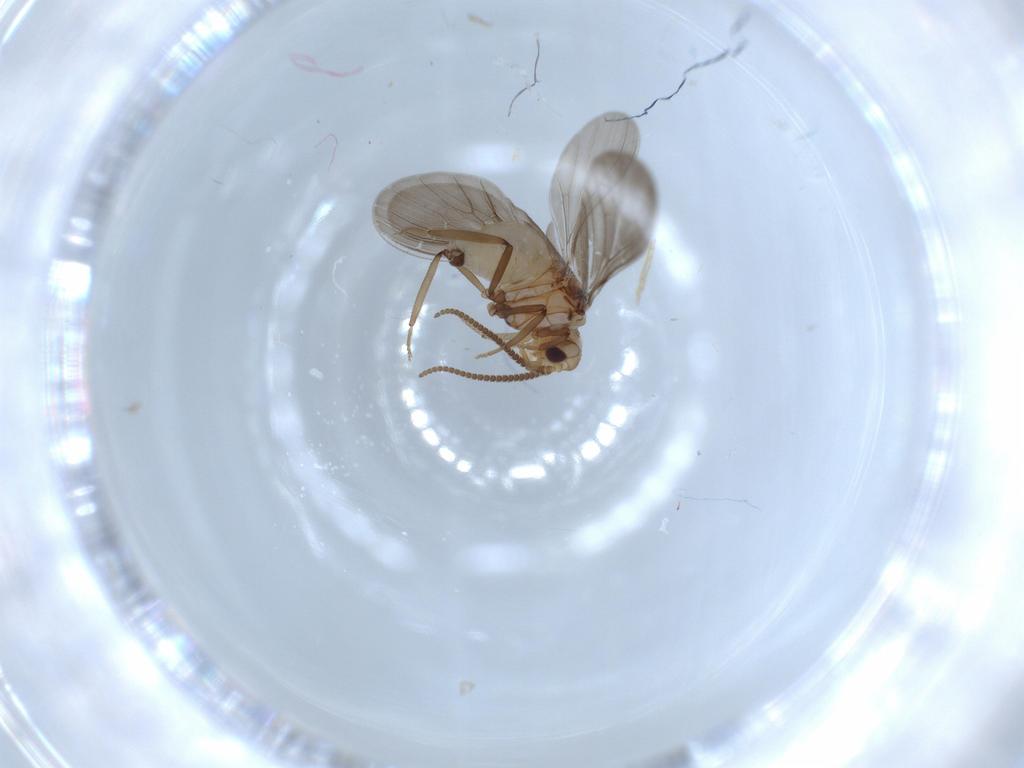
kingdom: Animalia
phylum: Arthropoda
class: Insecta
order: Neuroptera
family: Coniopterygidae
